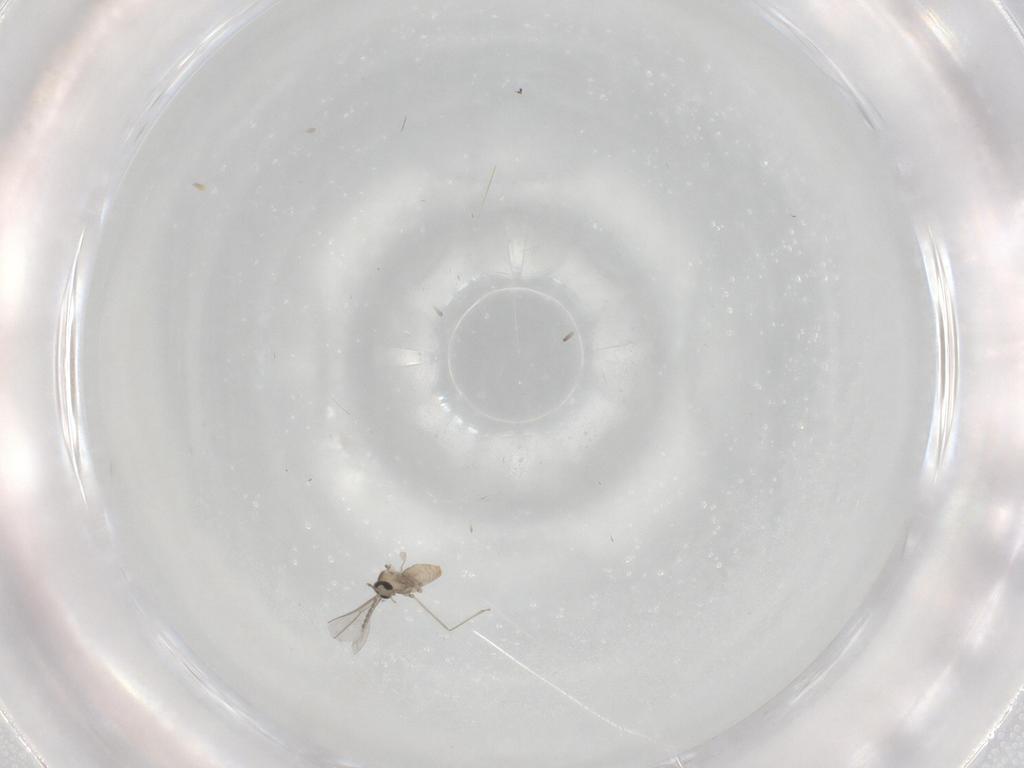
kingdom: Animalia
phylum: Arthropoda
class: Insecta
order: Diptera
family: Cecidomyiidae
